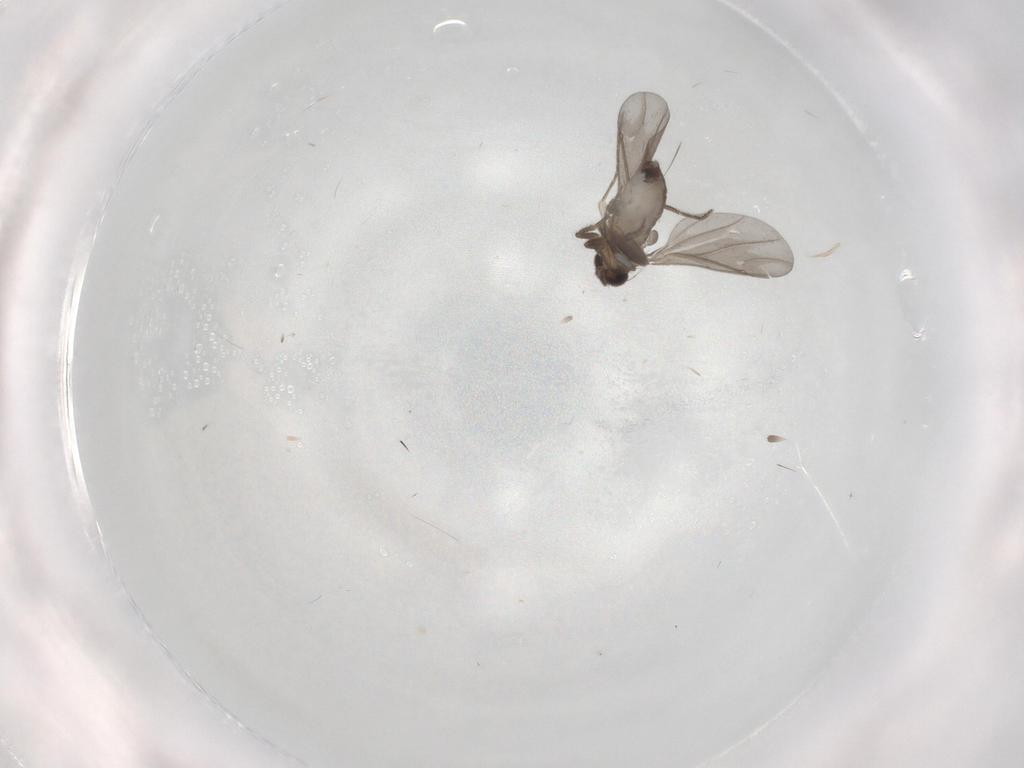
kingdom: Animalia
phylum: Arthropoda
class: Insecta
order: Diptera
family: Phoridae
